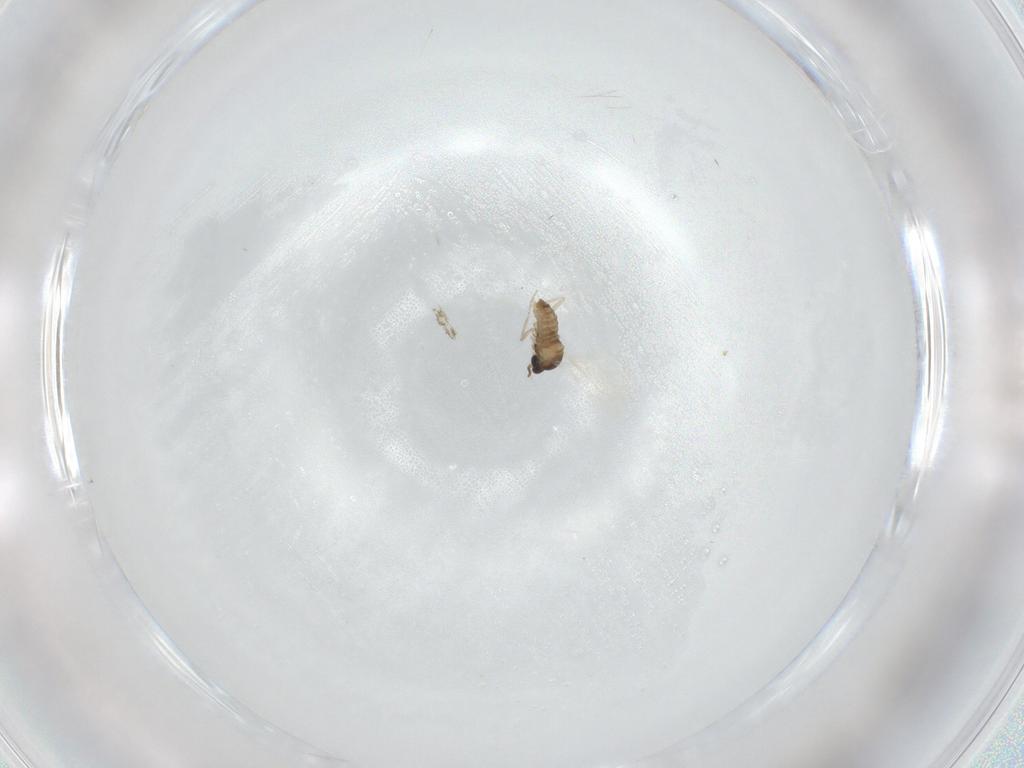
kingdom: Animalia
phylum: Arthropoda
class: Insecta
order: Diptera
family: Cecidomyiidae
